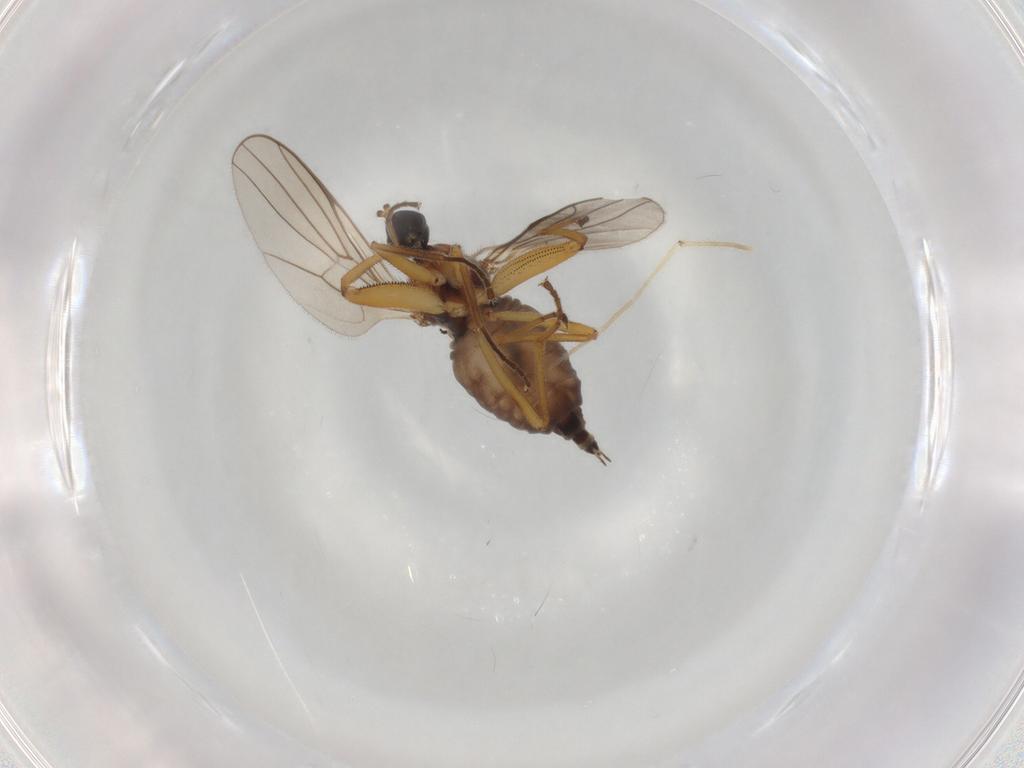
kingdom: Animalia
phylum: Arthropoda
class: Insecta
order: Diptera
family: Hybotidae
